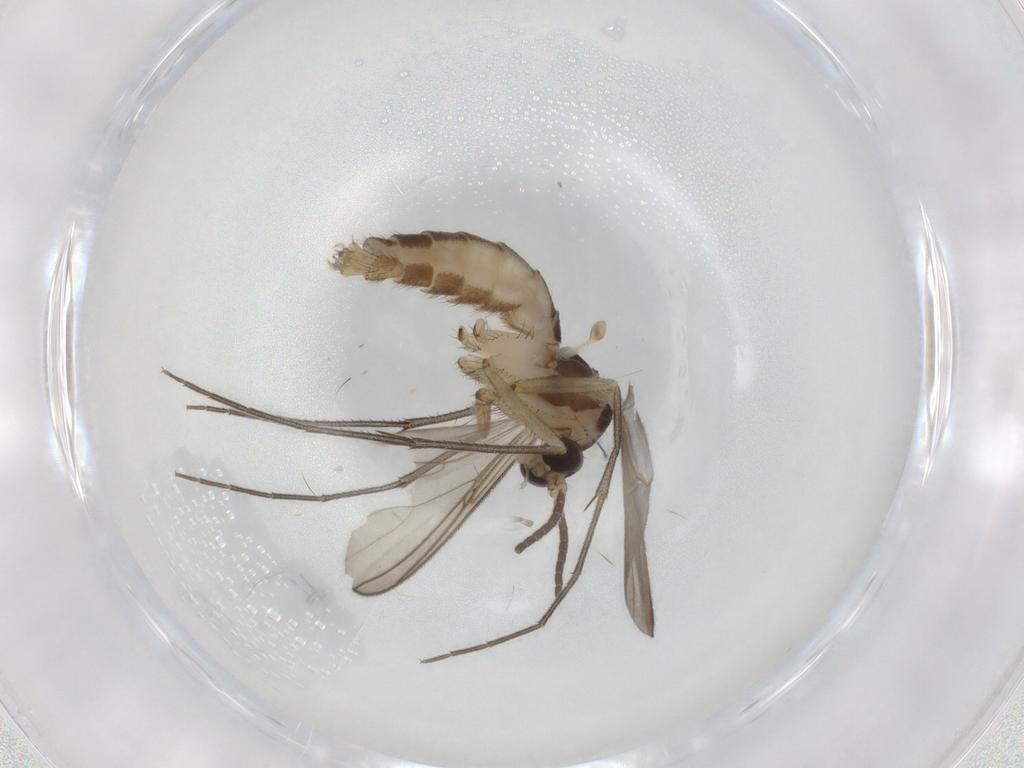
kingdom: Animalia
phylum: Arthropoda
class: Insecta
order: Diptera
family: Mycetophilidae
